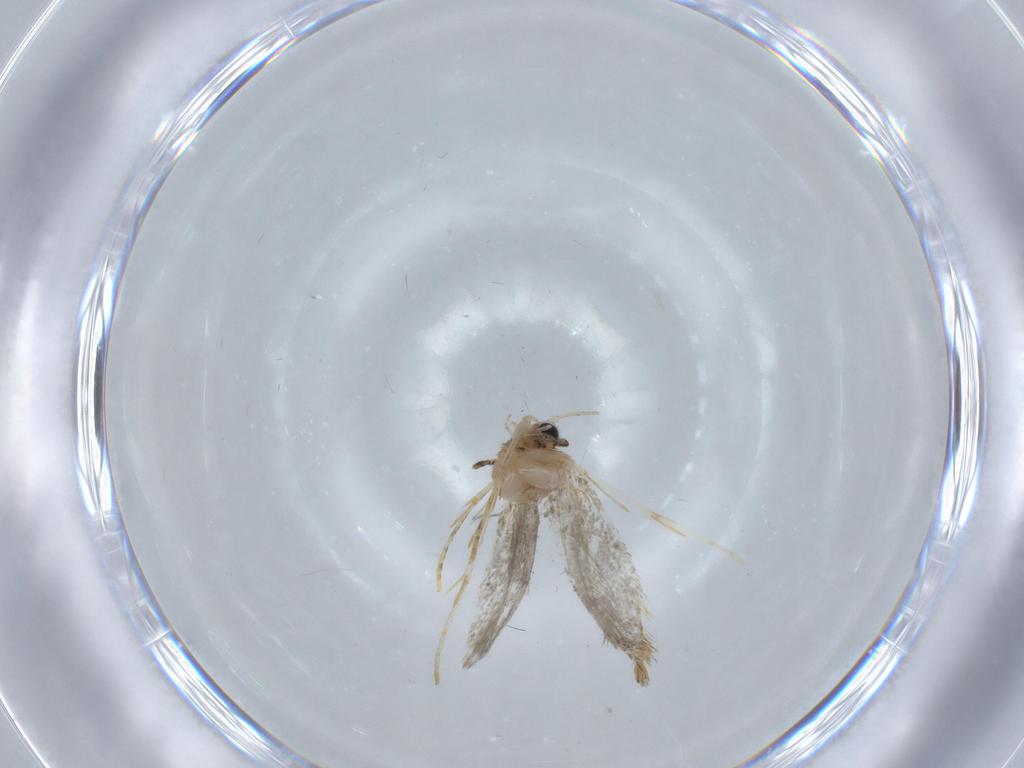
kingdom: Animalia
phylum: Arthropoda
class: Insecta
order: Lepidoptera
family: Tineidae
